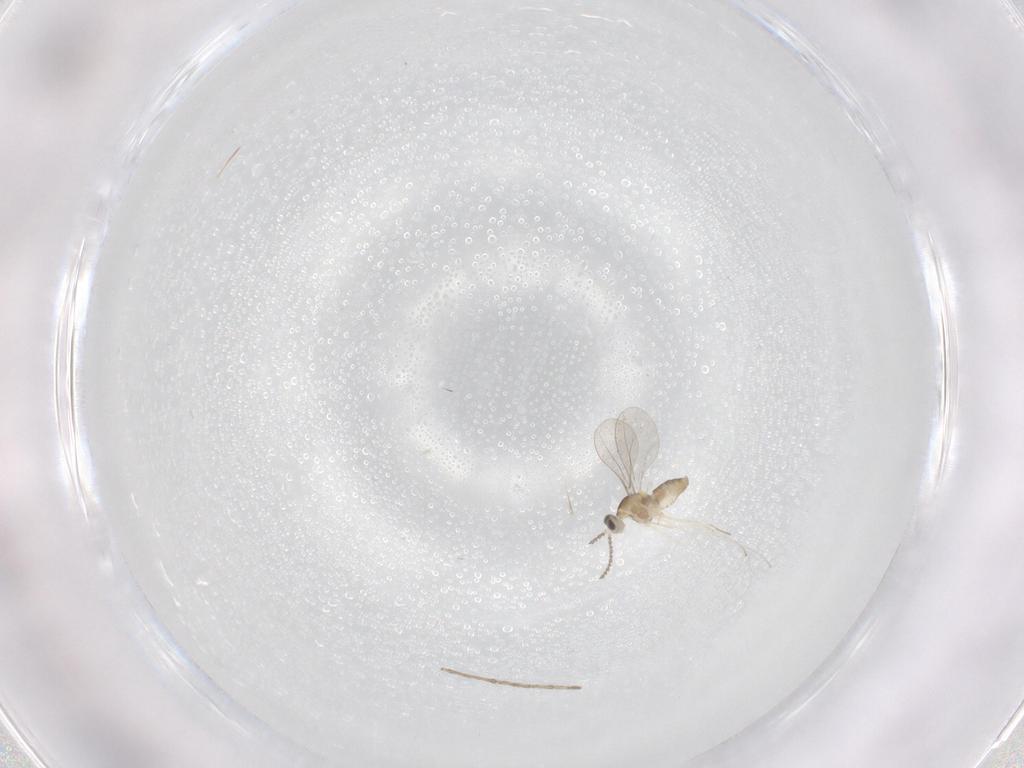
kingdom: Animalia
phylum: Arthropoda
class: Insecta
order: Diptera
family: Cecidomyiidae
